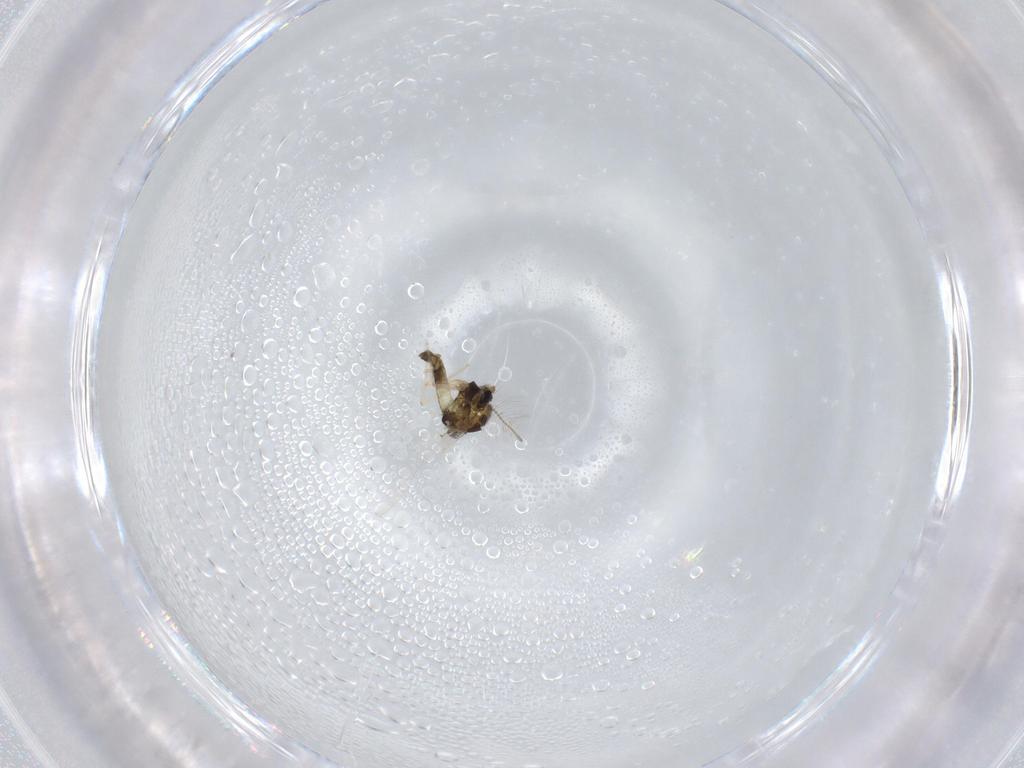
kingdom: Animalia
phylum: Arthropoda
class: Insecta
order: Diptera
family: Chironomidae
